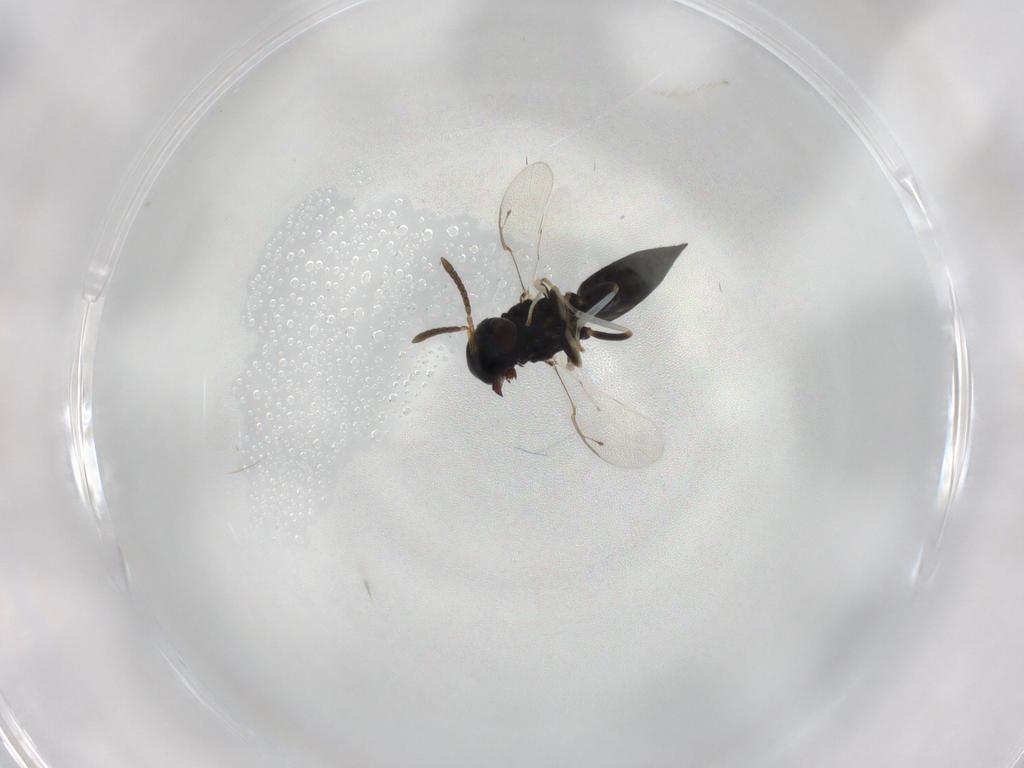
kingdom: Animalia
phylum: Arthropoda
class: Insecta
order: Hymenoptera
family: Pteromalidae
